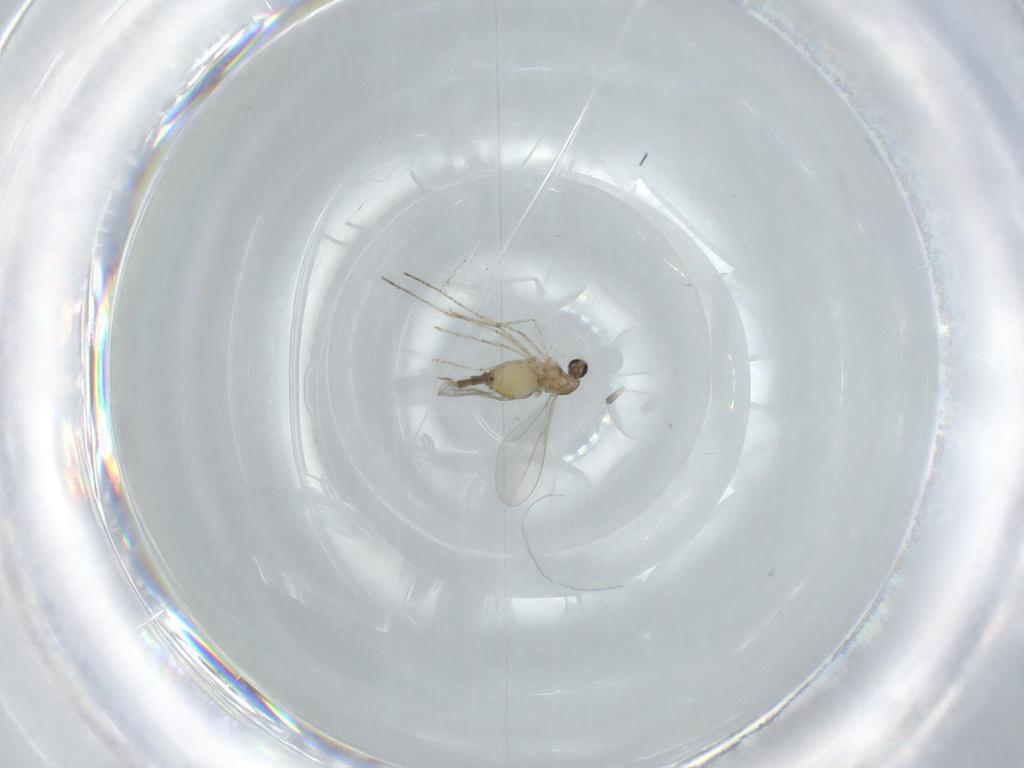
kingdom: Animalia
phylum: Arthropoda
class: Insecta
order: Diptera
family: Cecidomyiidae
